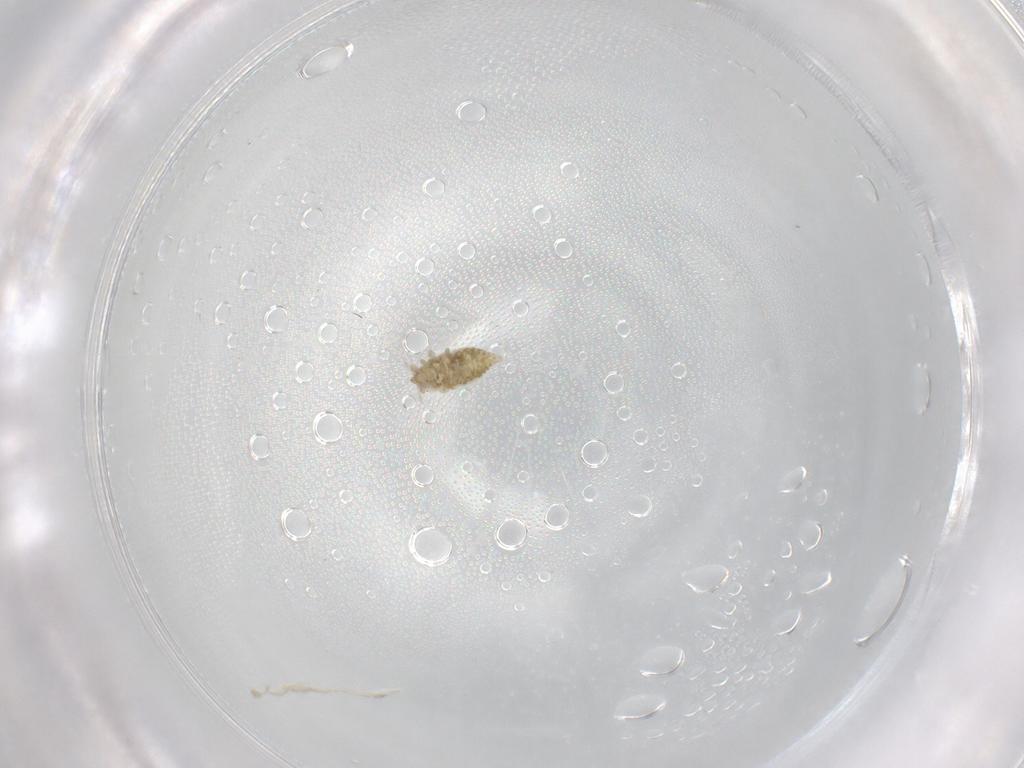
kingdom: Animalia
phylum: Arthropoda
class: Insecta
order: Neuroptera
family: Coniopterygidae
